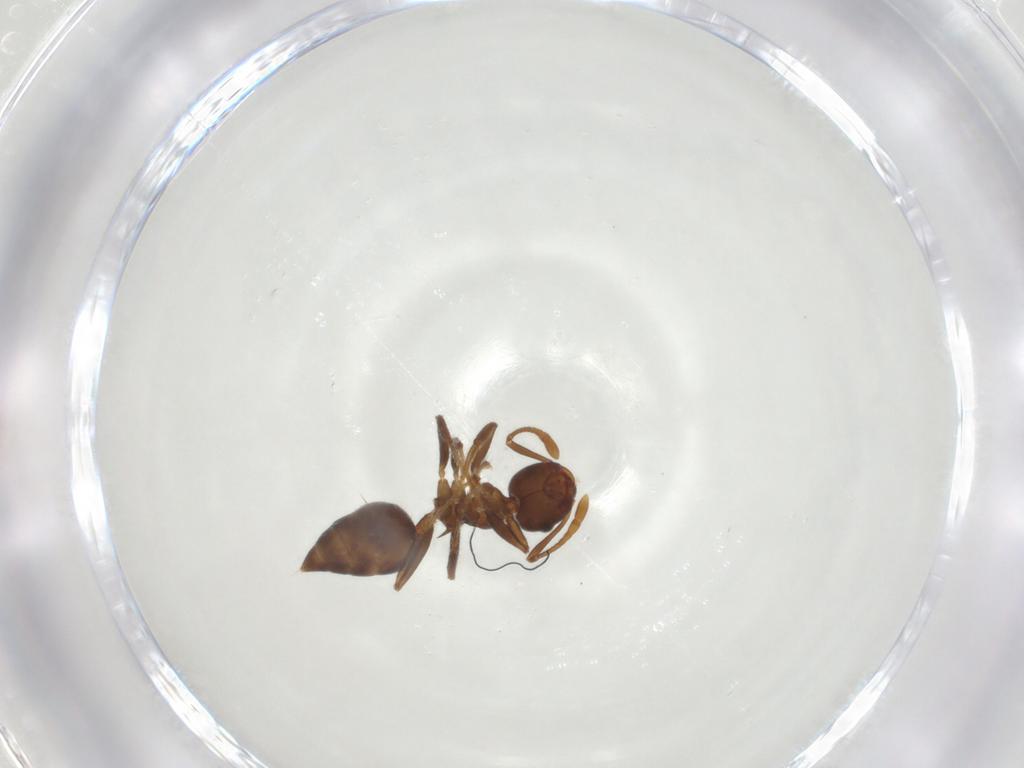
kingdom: Animalia
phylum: Arthropoda
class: Insecta
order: Hymenoptera
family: Formicidae
